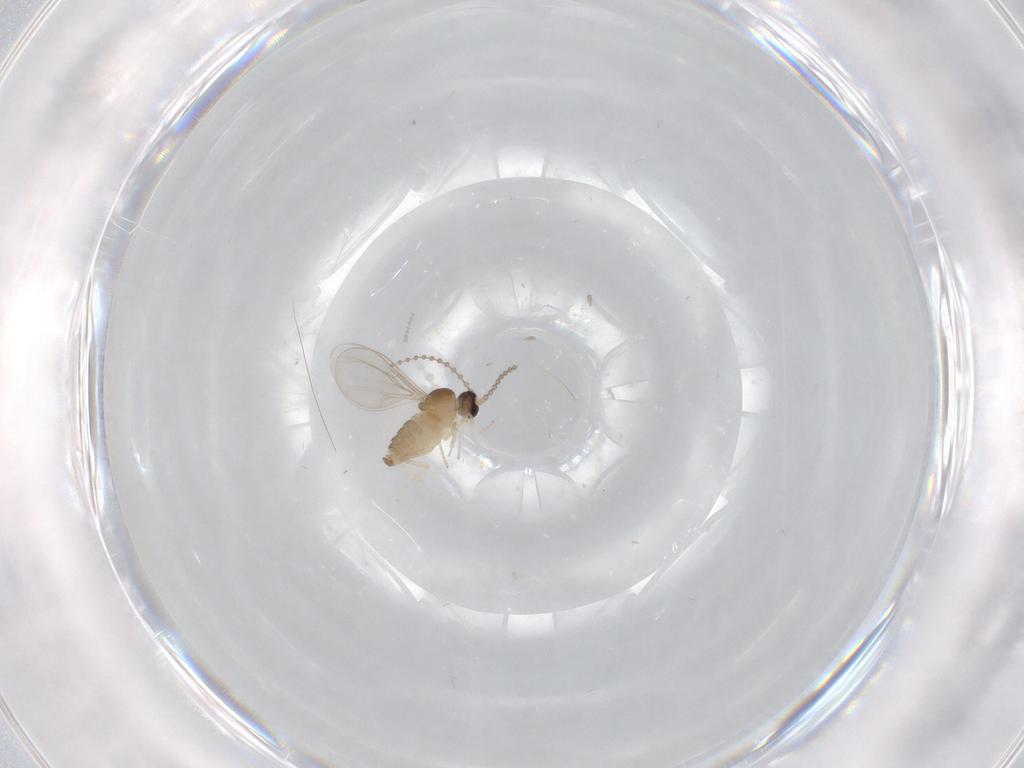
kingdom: Animalia
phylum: Arthropoda
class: Insecta
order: Diptera
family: Cecidomyiidae
